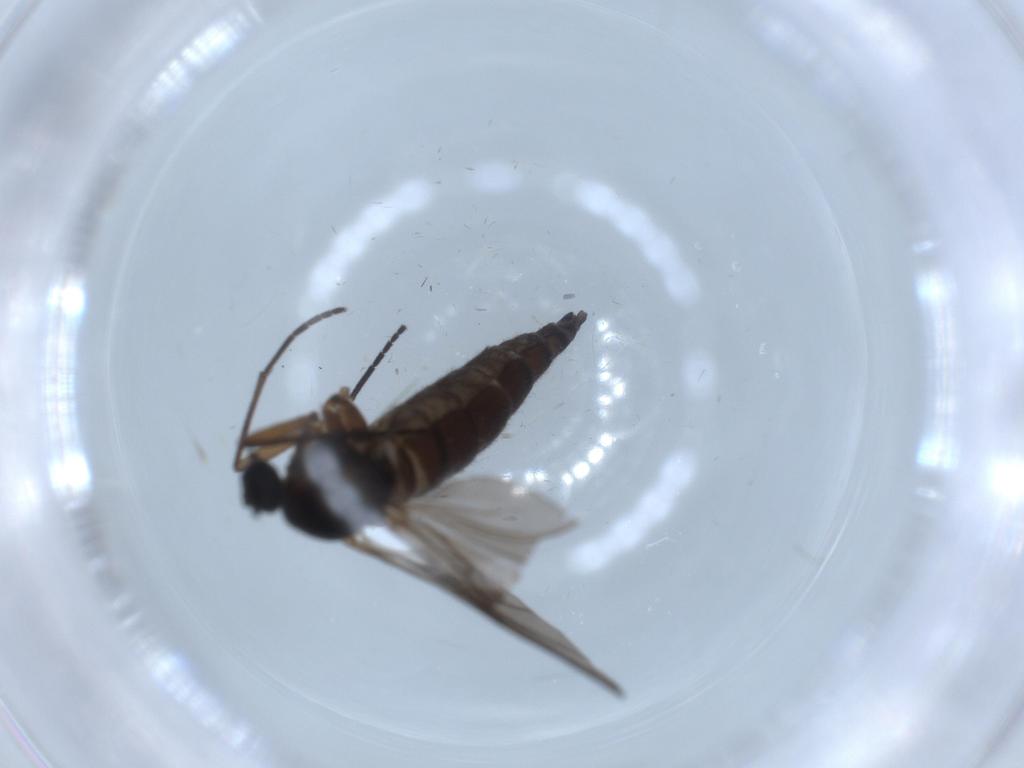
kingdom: Animalia
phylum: Arthropoda
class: Insecta
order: Diptera
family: Sciaridae
